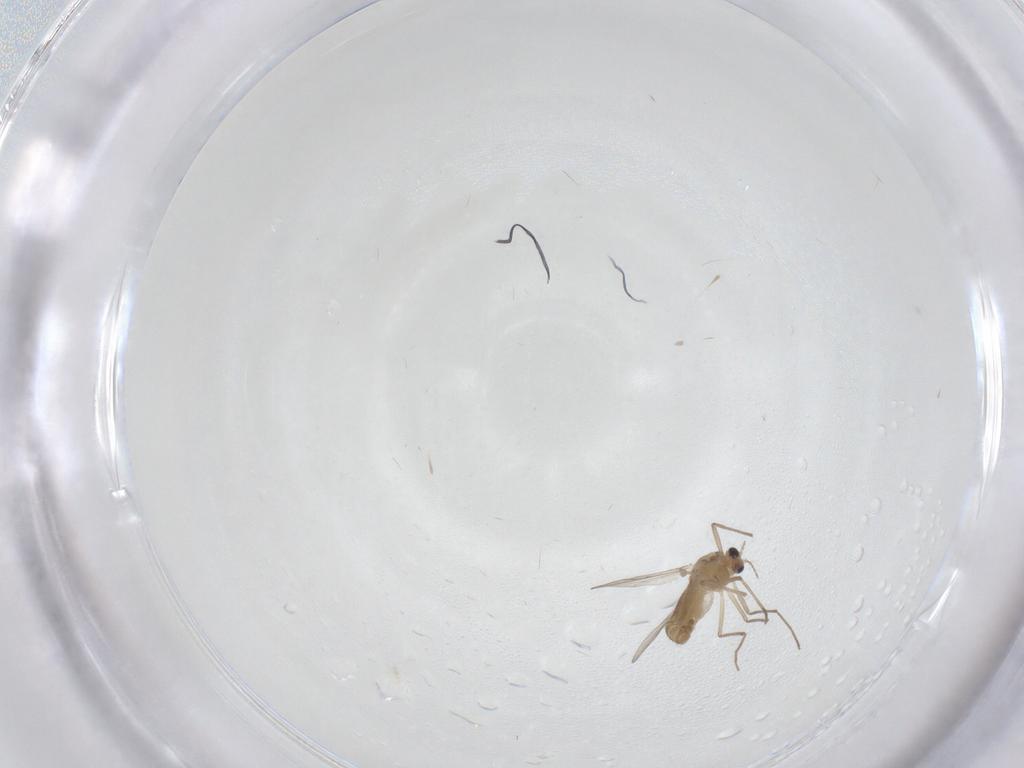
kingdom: Animalia
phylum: Arthropoda
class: Insecta
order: Diptera
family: Chironomidae
